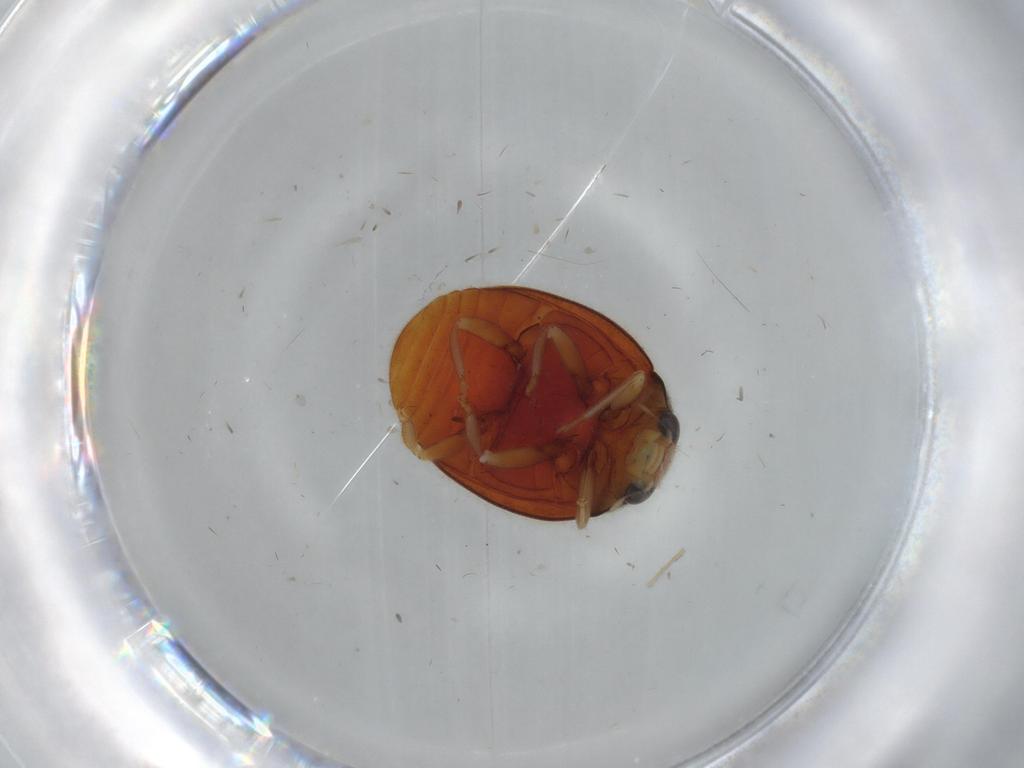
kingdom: Animalia
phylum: Arthropoda
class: Insecta
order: Coleoptera
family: Coccinellidae
